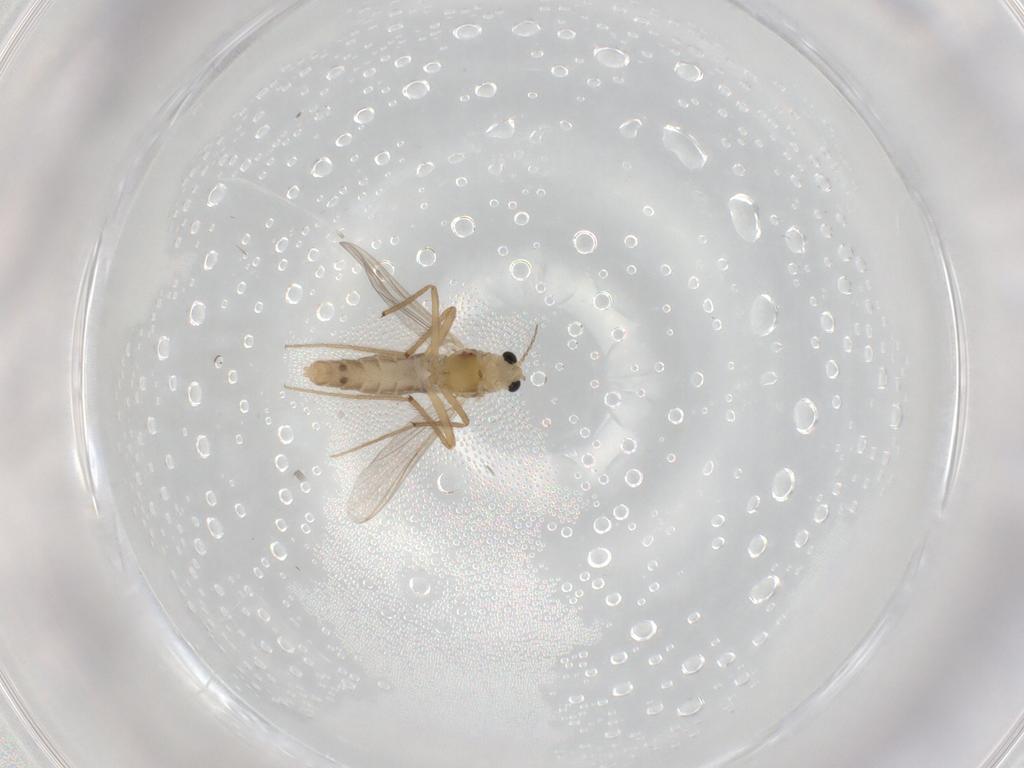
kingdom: Animalia
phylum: Arthropoda
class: Insecta
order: Diptera
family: Chironomidae
